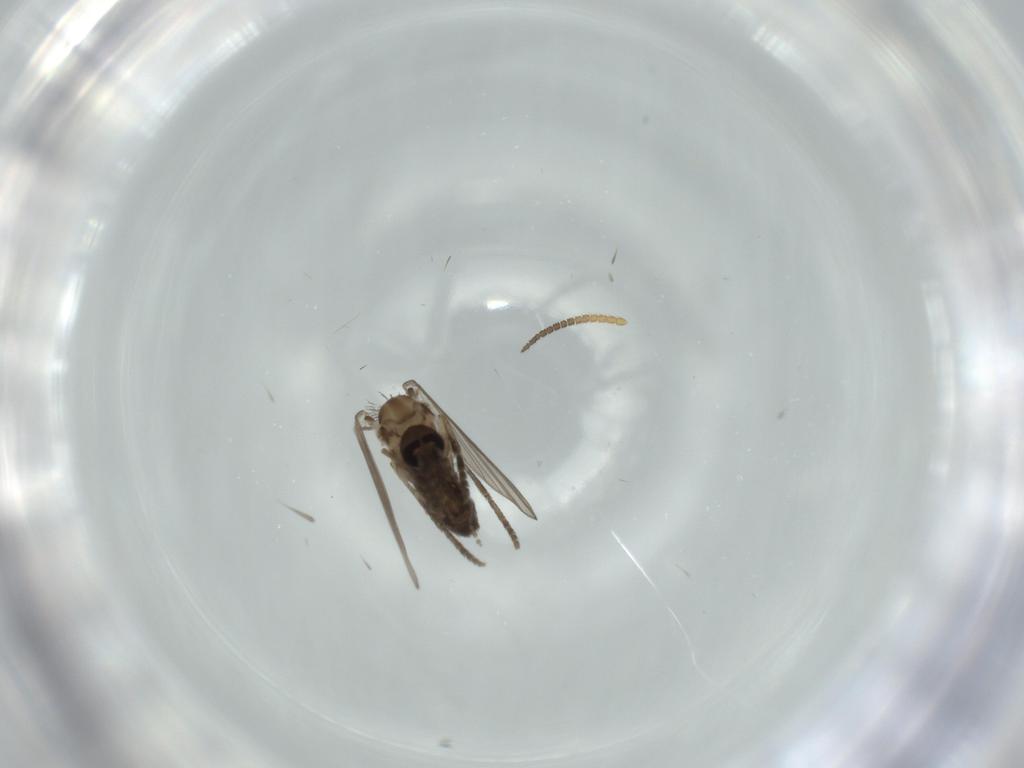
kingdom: Animalia
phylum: Arthropoda
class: Insecta
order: Diptera
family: Psychodidae
